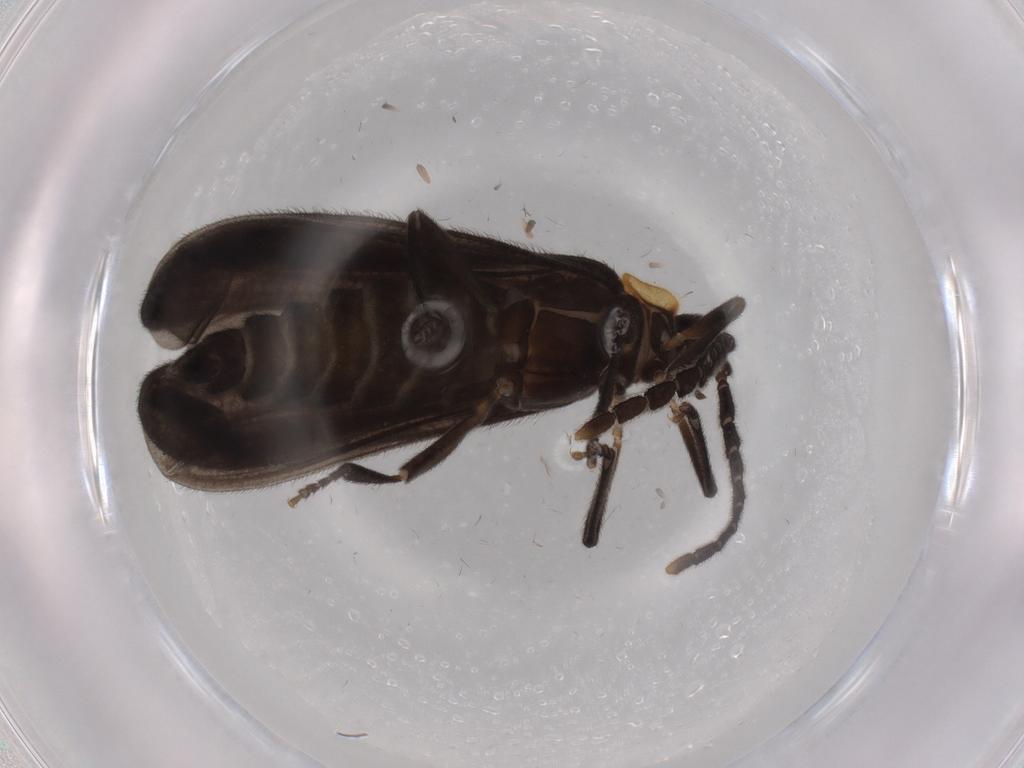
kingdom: Animalia
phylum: Arthropoda
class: Insecta
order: Coleoptera
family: Lycidae
